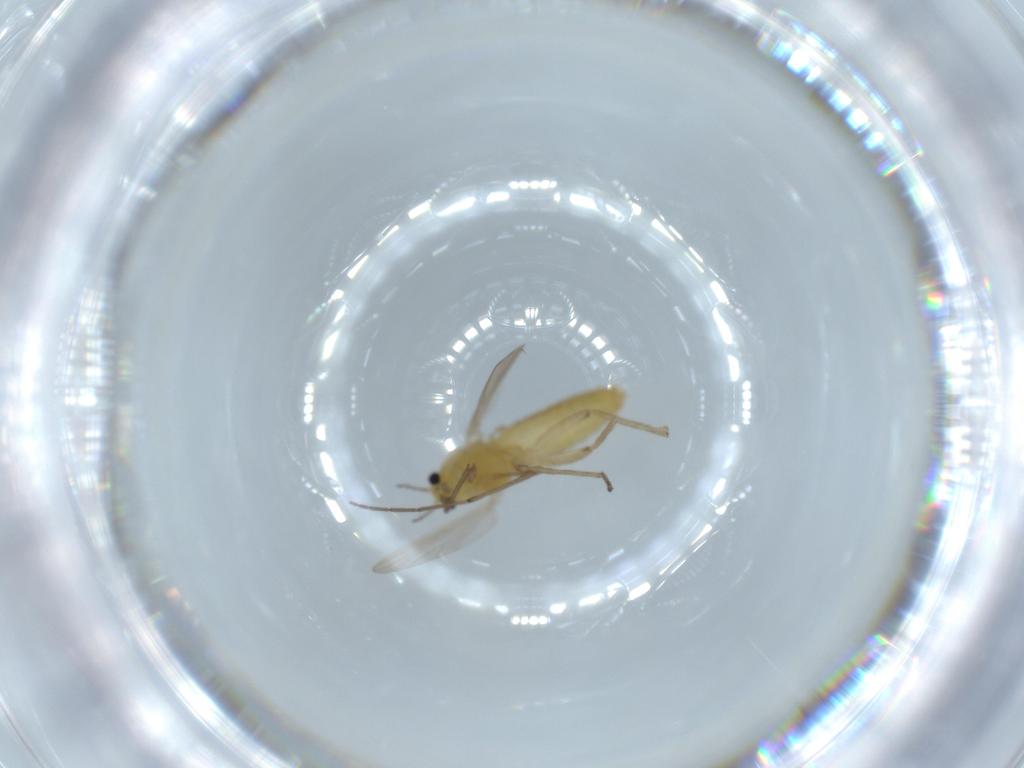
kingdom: Animalia
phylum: Arthropoda
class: Insecta
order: Diptera
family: Chironomidae
